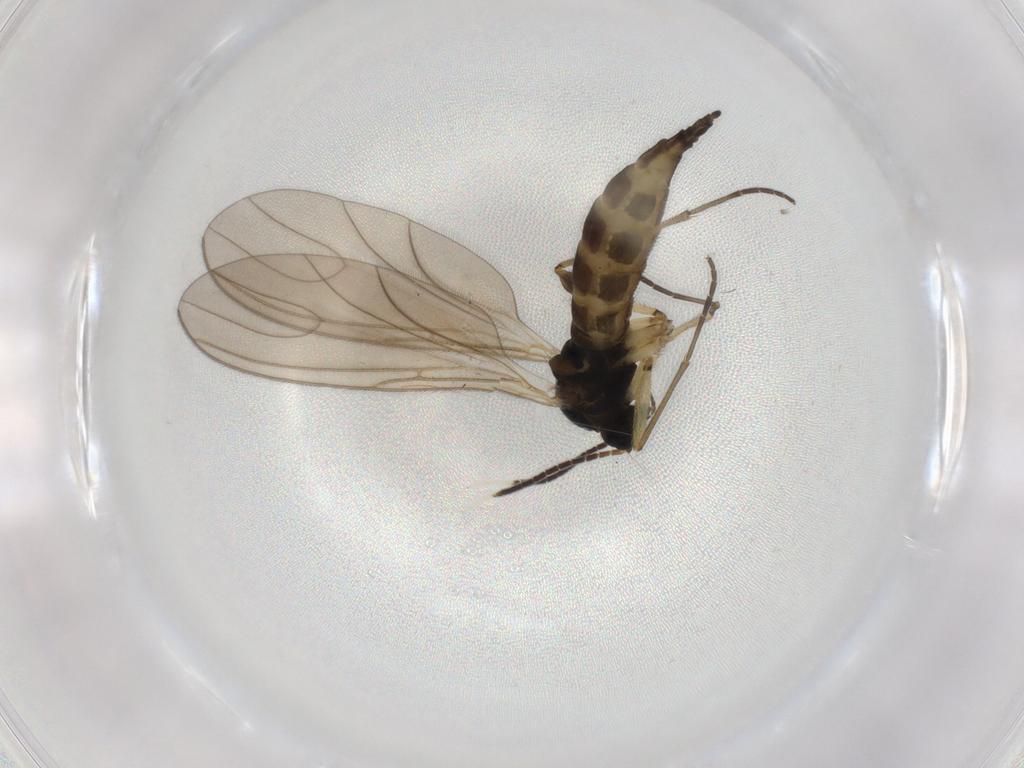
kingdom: Animalia
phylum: Arthropoda
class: Insecta
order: Diptera
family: Sciaridae
